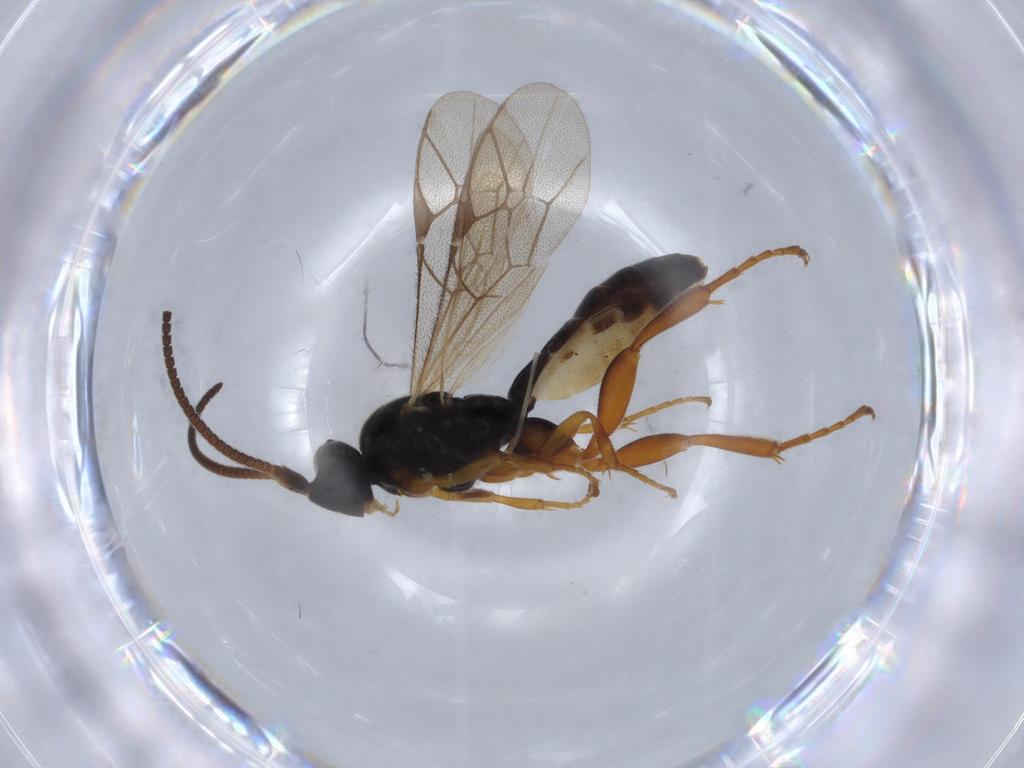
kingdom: Animalia
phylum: Arthropoda
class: Insecta
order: Hymenoptera
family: Ichneumonidae
